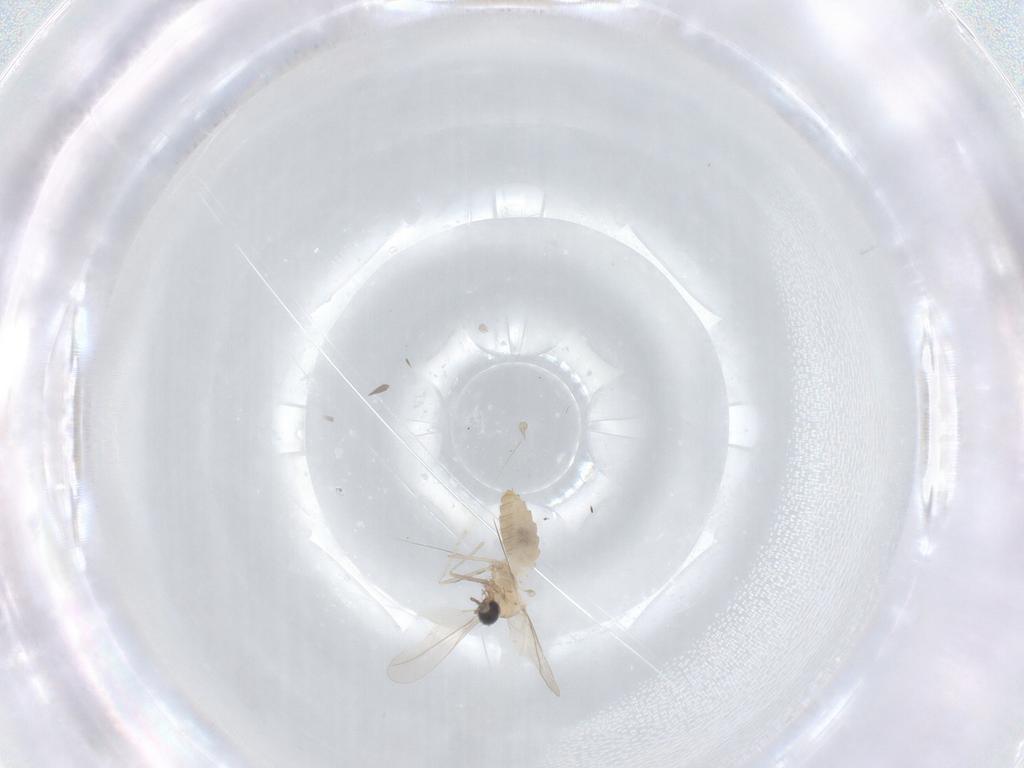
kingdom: Animalia
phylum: Arthropoda
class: Insecta
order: Diptera
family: Cecidomyiidae
